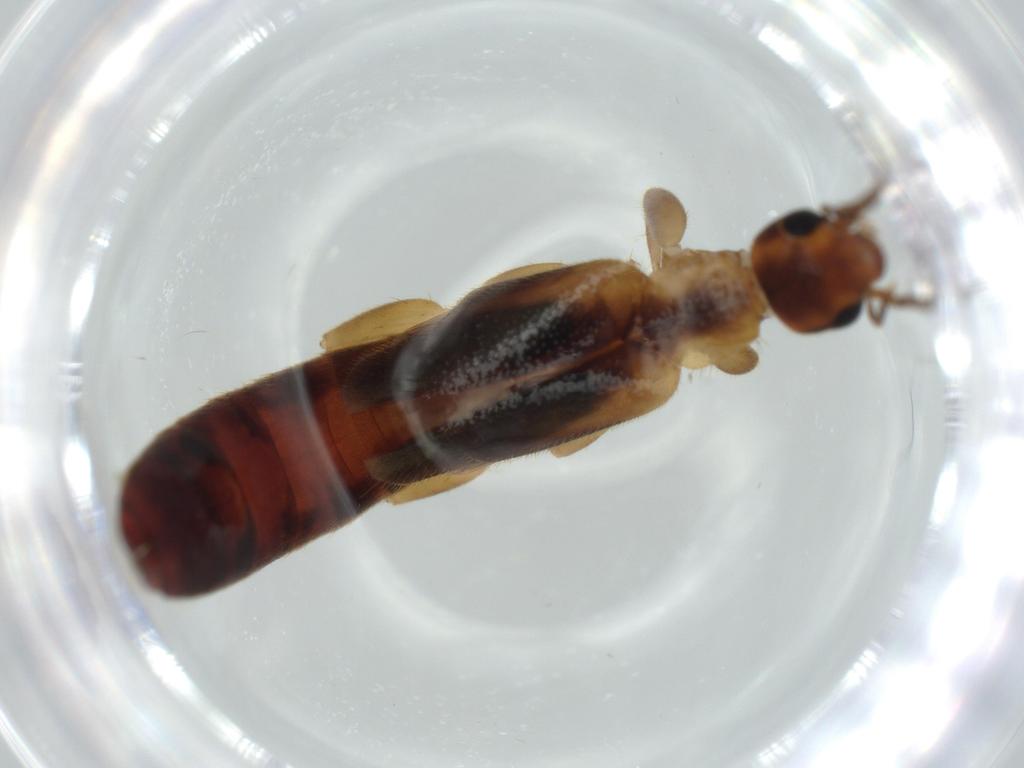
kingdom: Animalia
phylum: Arthropoda
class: Insecta
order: Dermaptera
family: Forficulidae
